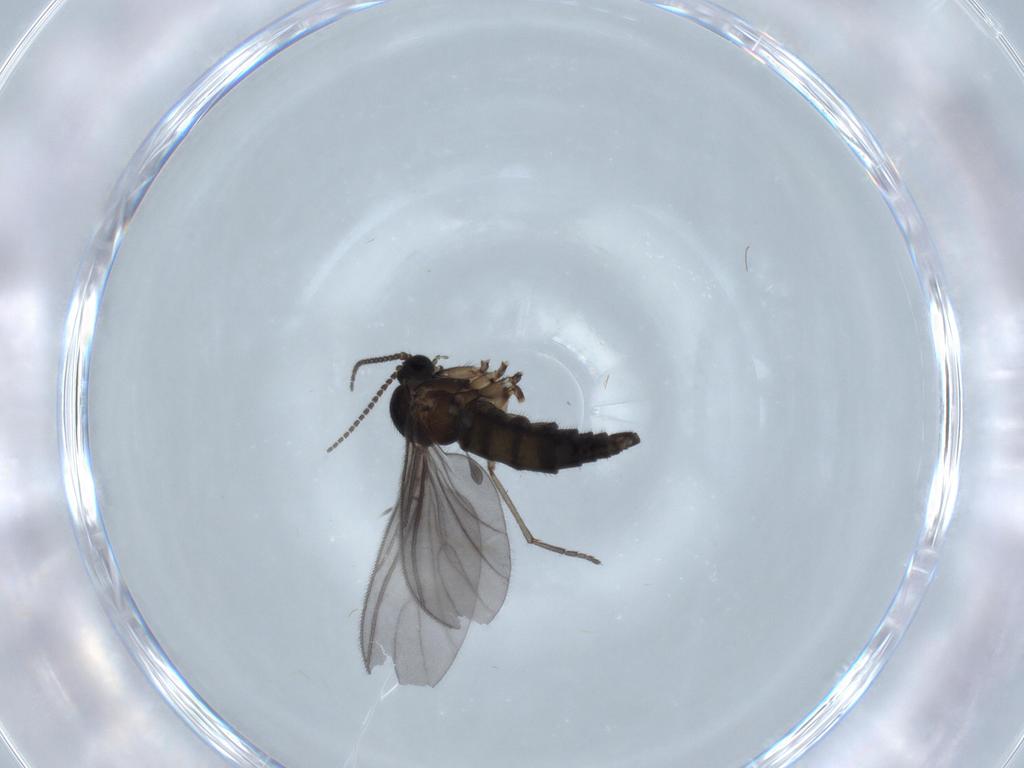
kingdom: Animalia
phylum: Arthropoda
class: Insecta
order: Diptera
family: Sciaridae
